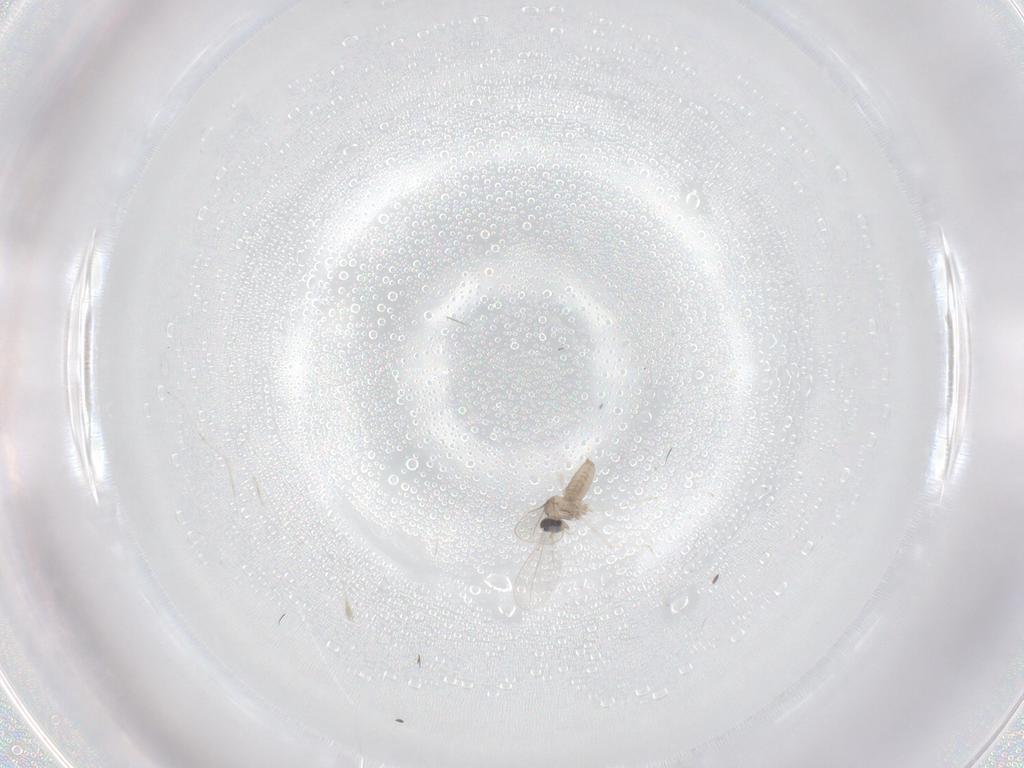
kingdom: Animalia
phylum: Arthropoda
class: Insecta
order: Diptera
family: Cecidomyiidae
